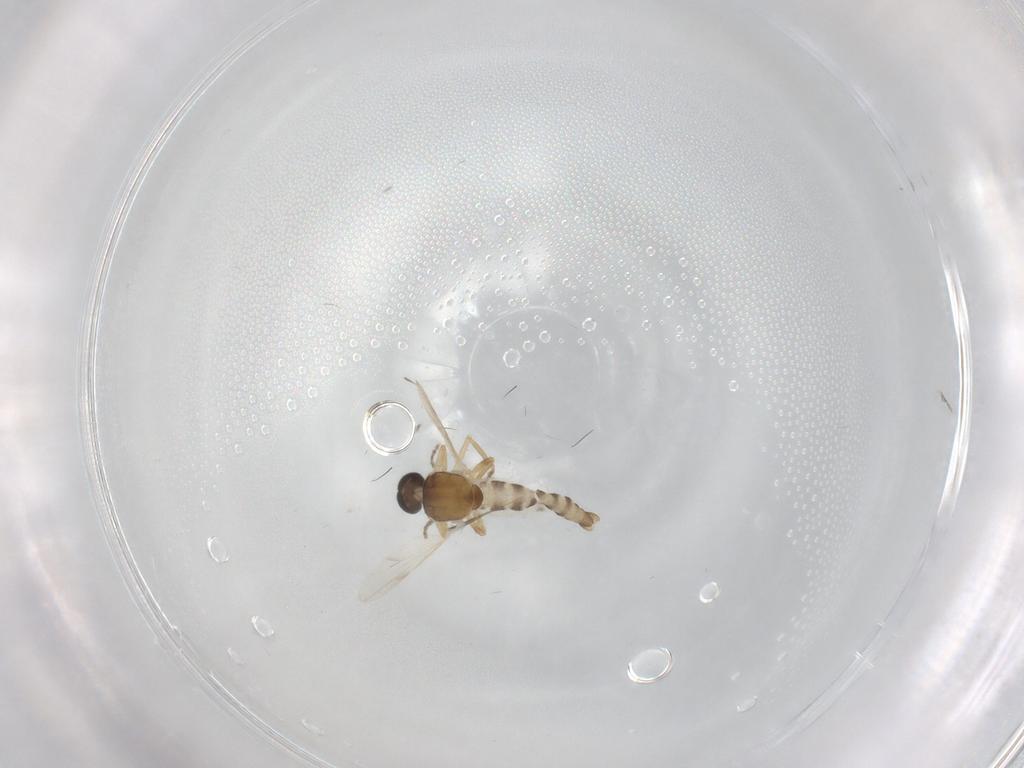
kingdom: Animalia
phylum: Arthropoda
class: Insecta
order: Diptera
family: Ceratopogonidae
